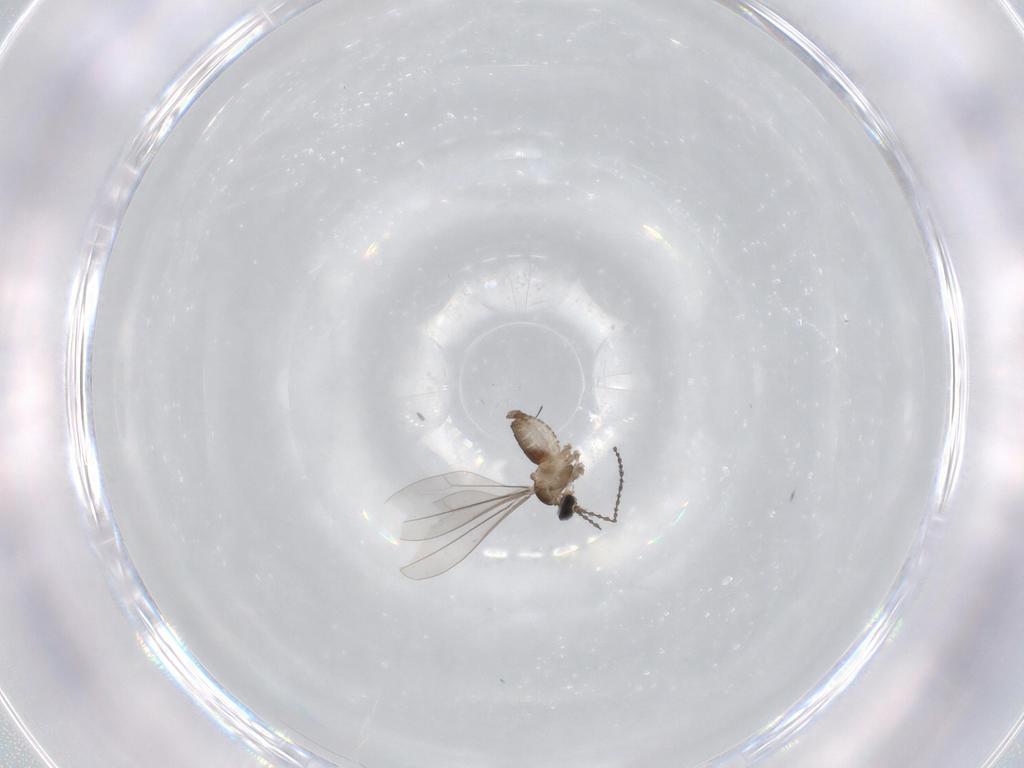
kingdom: Animalia
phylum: Arthropoda
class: Insecta
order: Diptera
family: Cecidomyiidae
